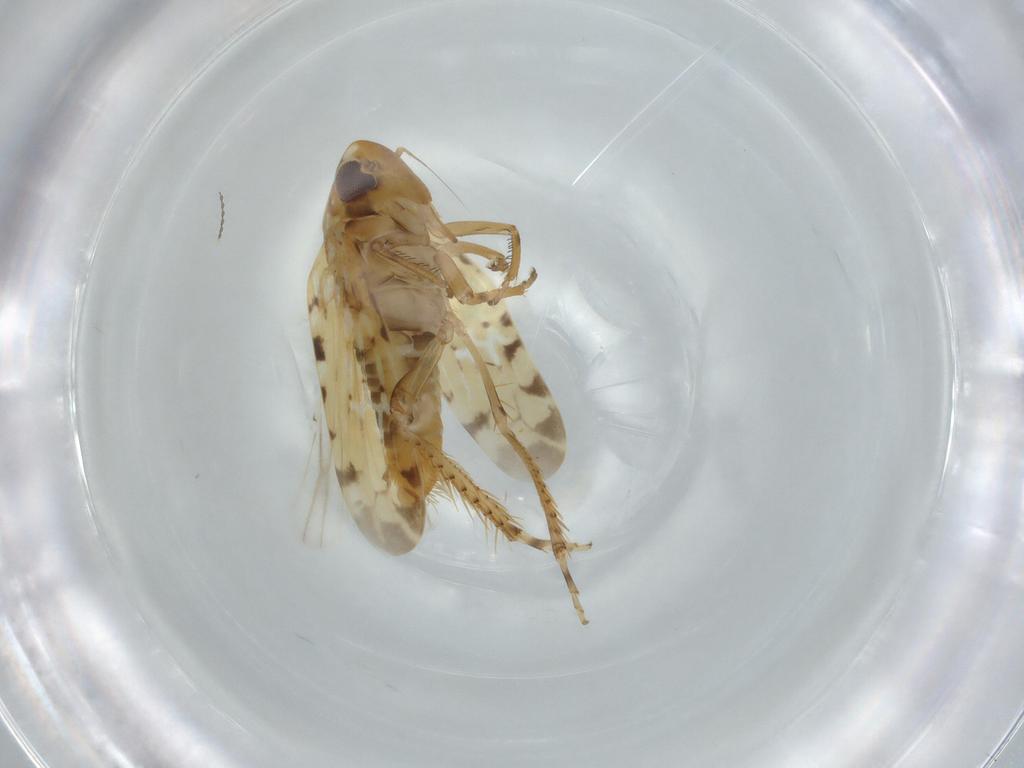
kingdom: Animalia
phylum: Arthropoda
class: Insecta
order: Hemiptera
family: Cicadellidae
